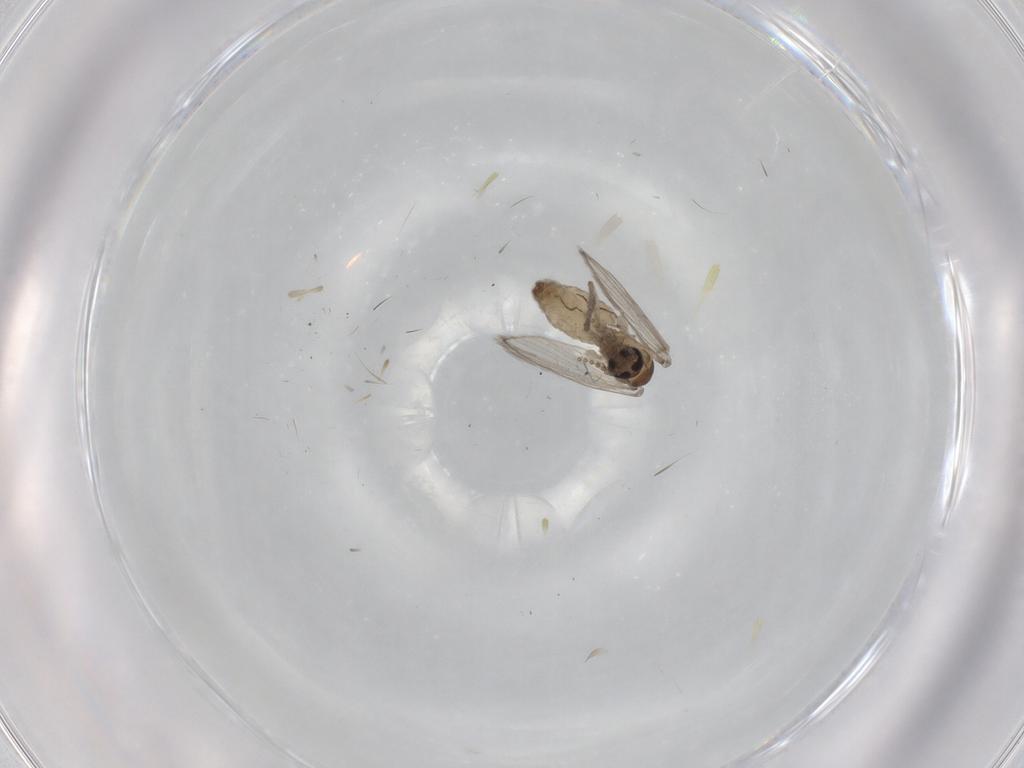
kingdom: Animalia
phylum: Arthropoda
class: Insecta
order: Diptera
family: Psychodidae
